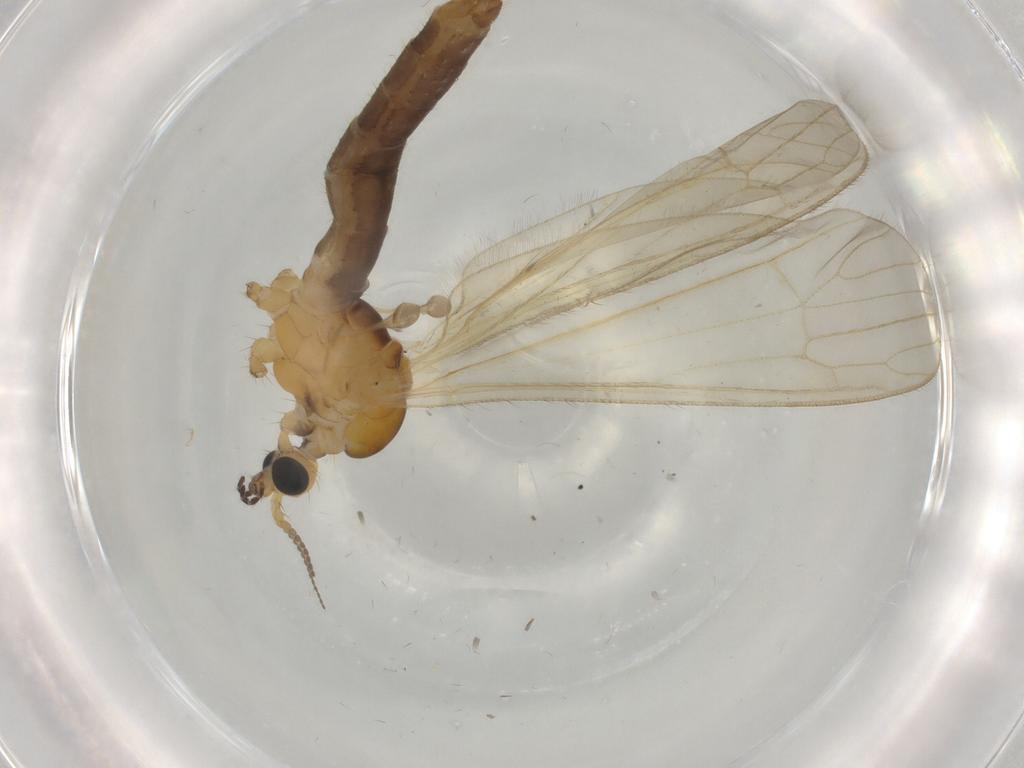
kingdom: Animalia
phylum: Arthropoda
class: Insecta
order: Diptera
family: Limoniidae
